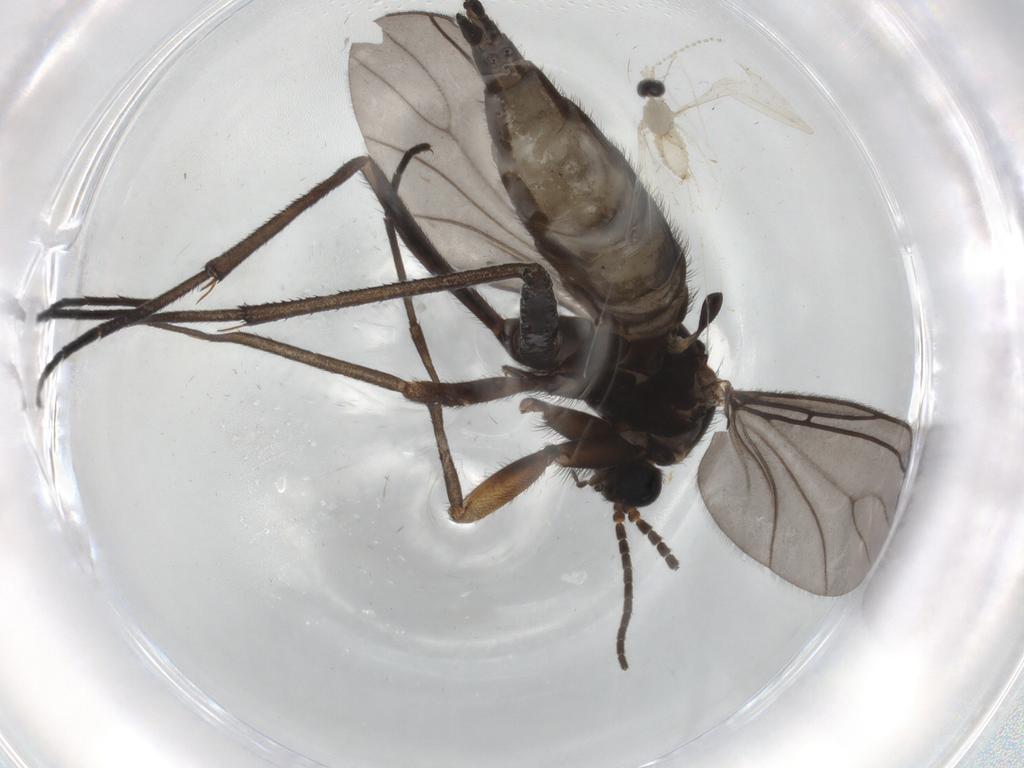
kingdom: Animalia
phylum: Arthropoda
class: Insecta
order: Diptera
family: Sciaridae
